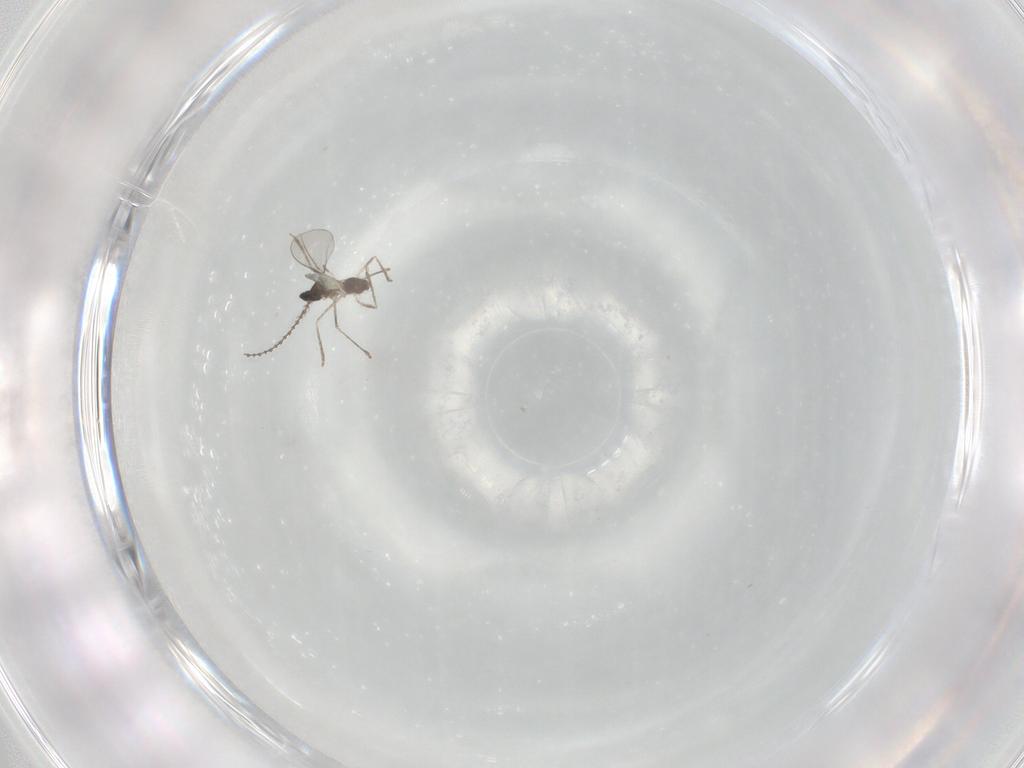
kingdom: Animalia
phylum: Arthropoda
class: Insecta
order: Diptera
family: Cecidomyiidae
